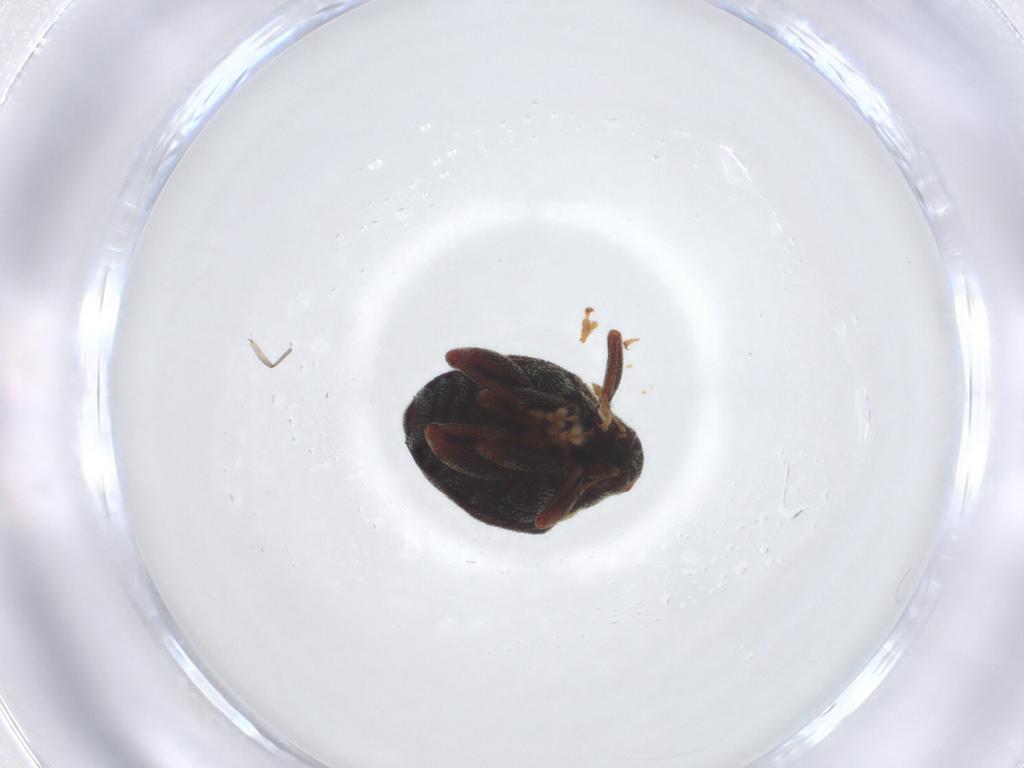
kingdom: Animalia
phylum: Arthropoda
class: Insecta
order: Coleoptera
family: Curculionidae
